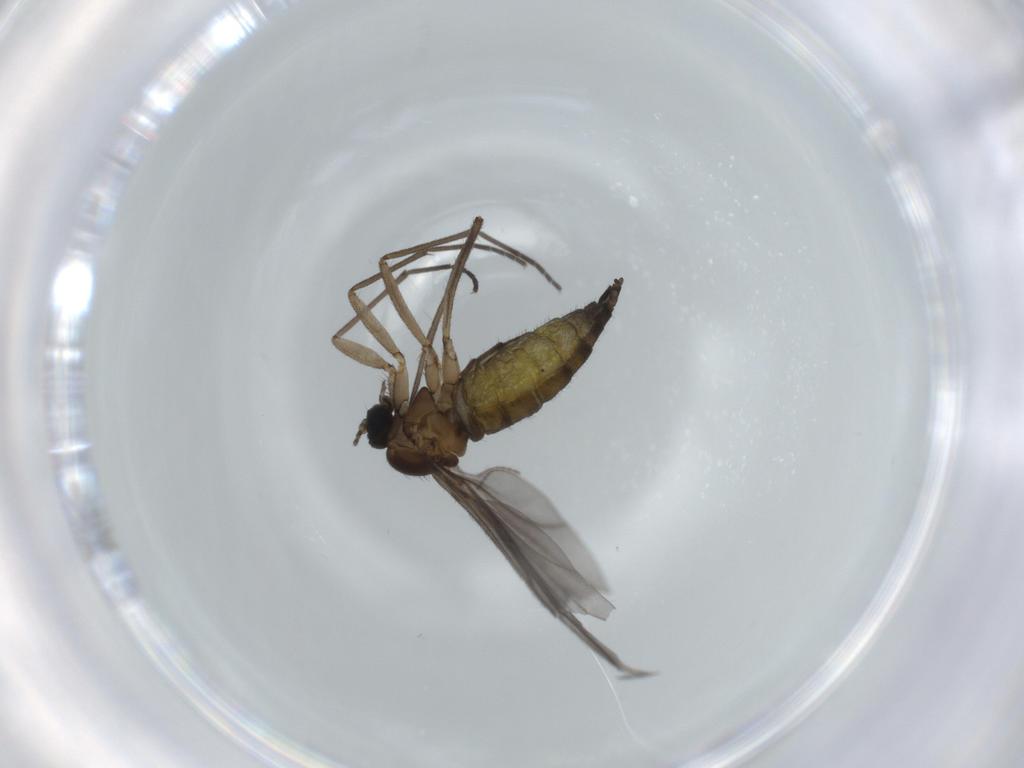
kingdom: Animalia
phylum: Arthropoda
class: Insecta
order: Diptera
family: Sciaridae
